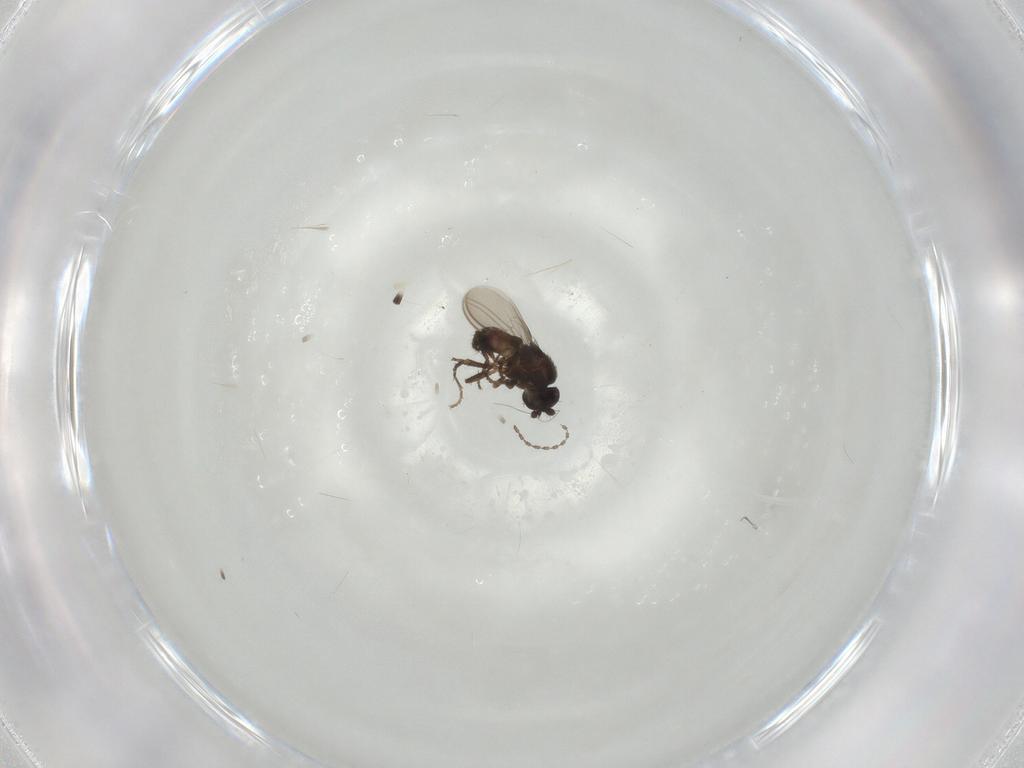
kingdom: Animalia
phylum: Arthropoda
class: Insecta
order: Diptera
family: Sphaeroceridae
